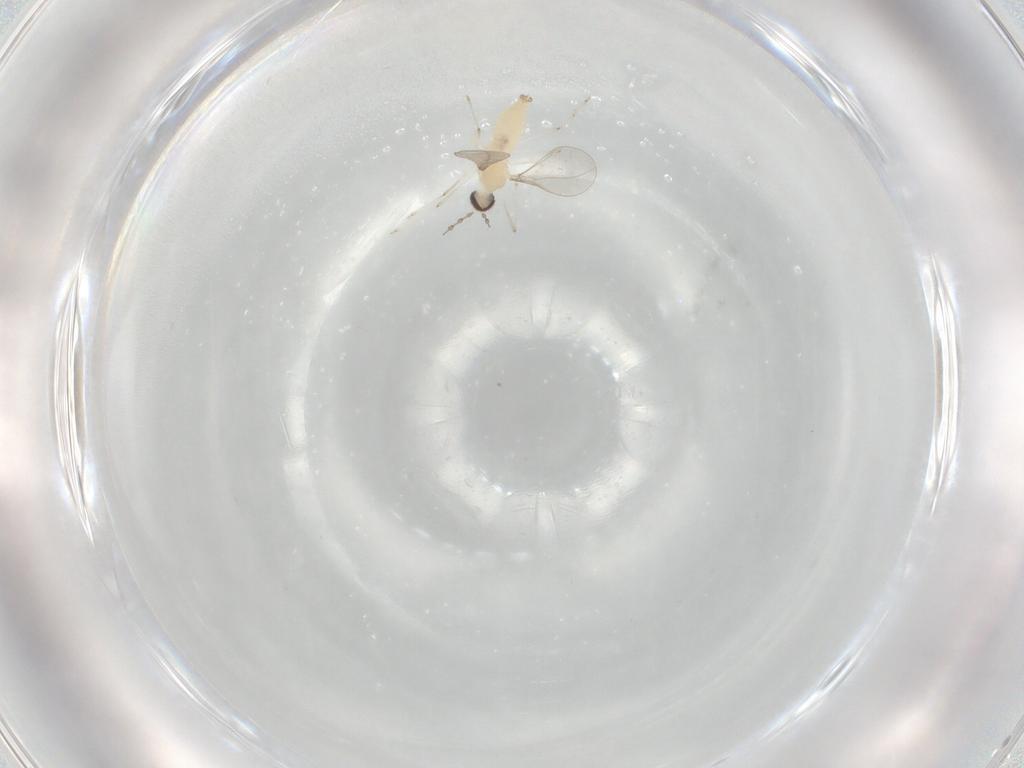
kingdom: Animalia
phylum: Arthropoda
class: Insecta
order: Diptera
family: Cecidomyiidae
